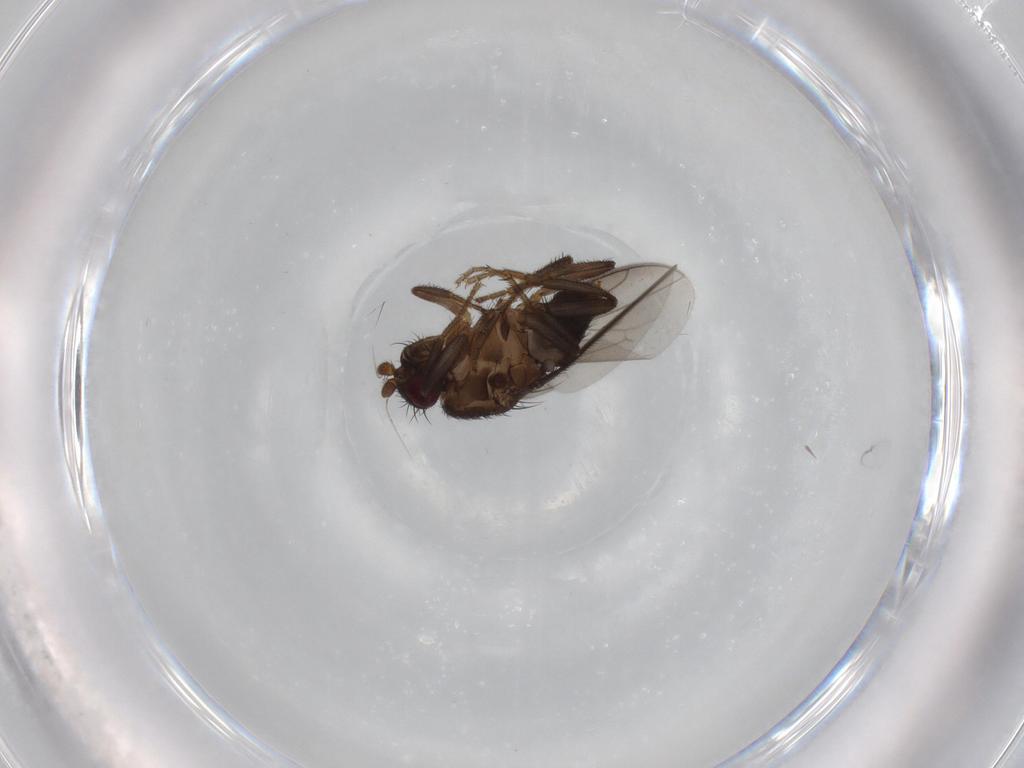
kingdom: Animalia
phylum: Arthropoda
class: Insecta
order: Diptera
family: Sphaeroceridae
